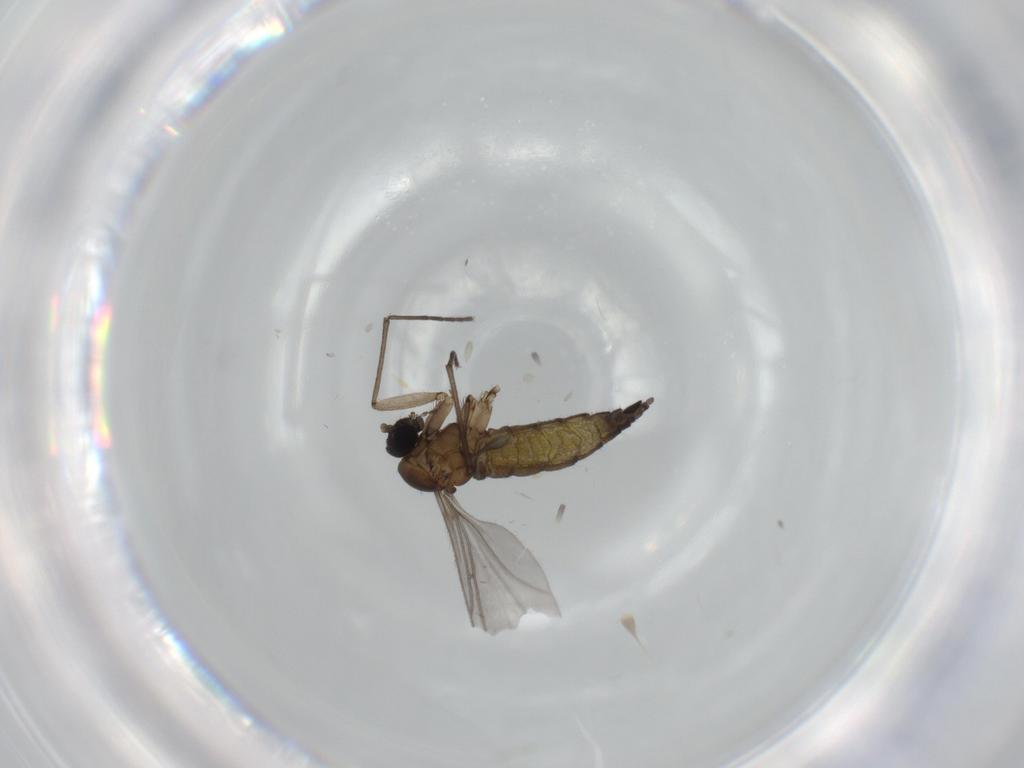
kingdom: Animalia
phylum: Arthropoda
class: Insecta
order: Diptera
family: Sciaridae
